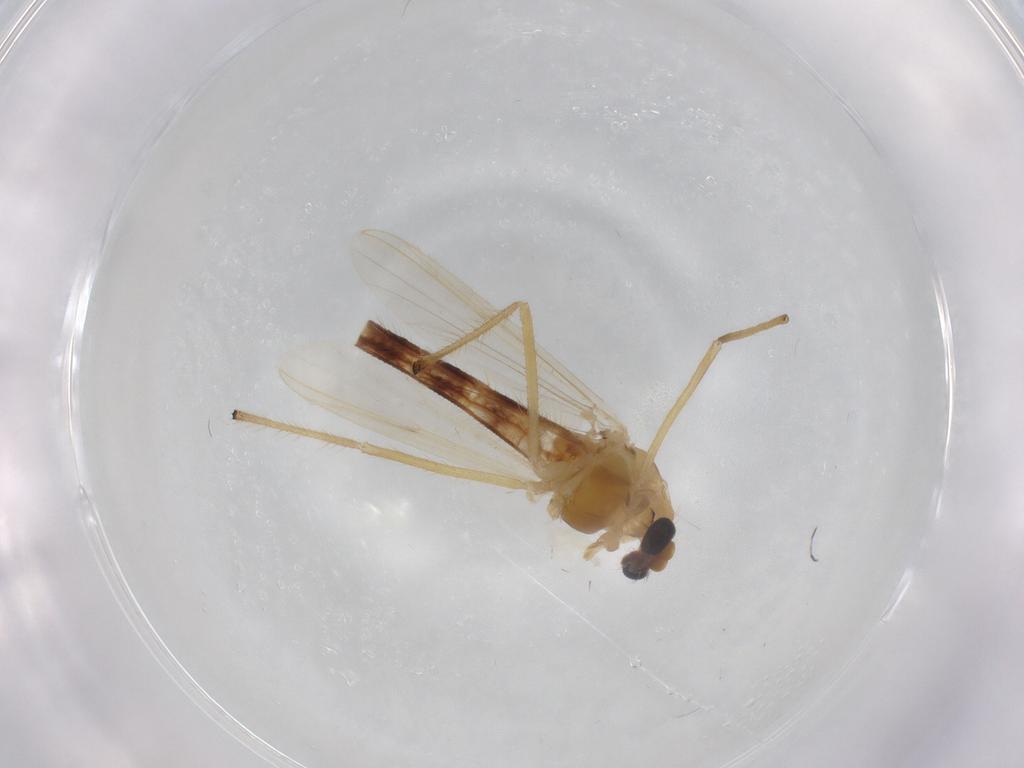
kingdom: Animalia
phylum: Arthropoda
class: Insecta
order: Diptera
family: Chironomidae
